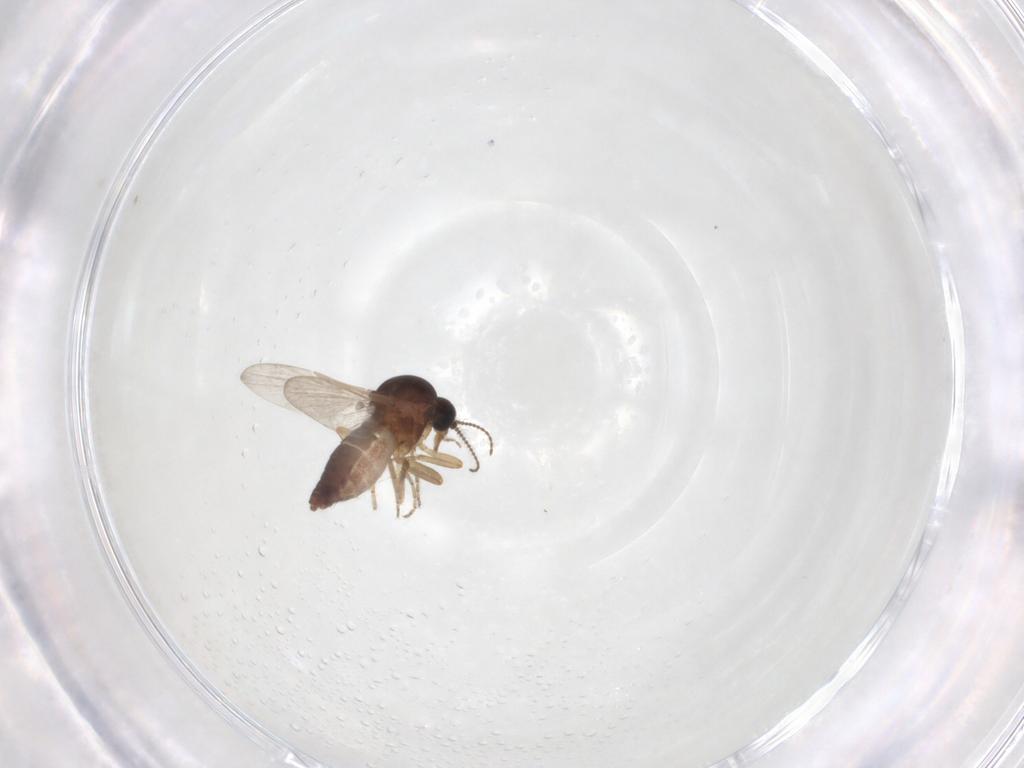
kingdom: Animalia
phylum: Arthropoda
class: Insecta
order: Diptera
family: Ceratopogonidae
